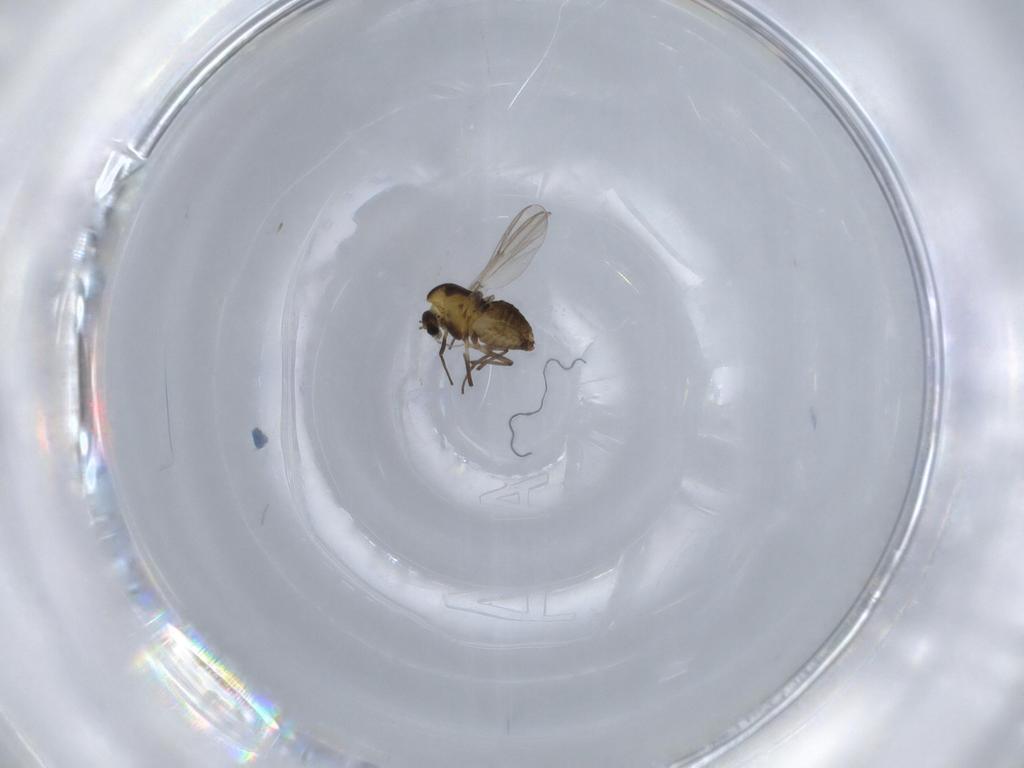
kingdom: Animalia
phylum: Arthropoda
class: Insecta
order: Diptera
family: Chironomidae
